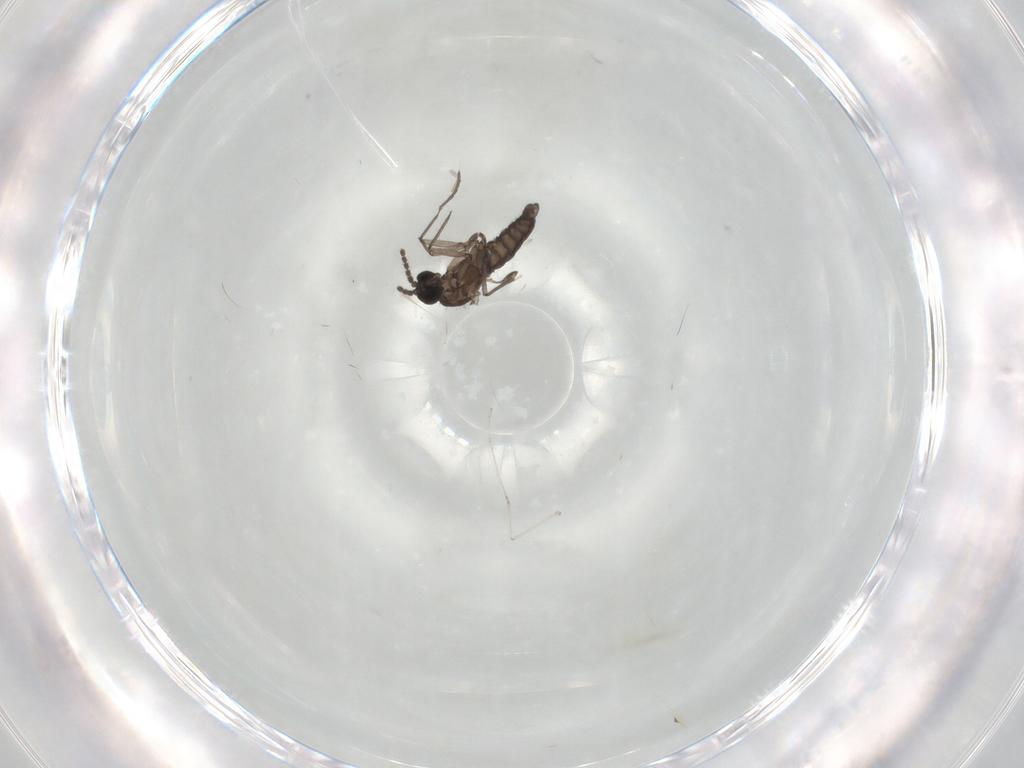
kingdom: Animalia
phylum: Arthropoda
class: Insecta
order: Diptera
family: Cecidomyiidae
